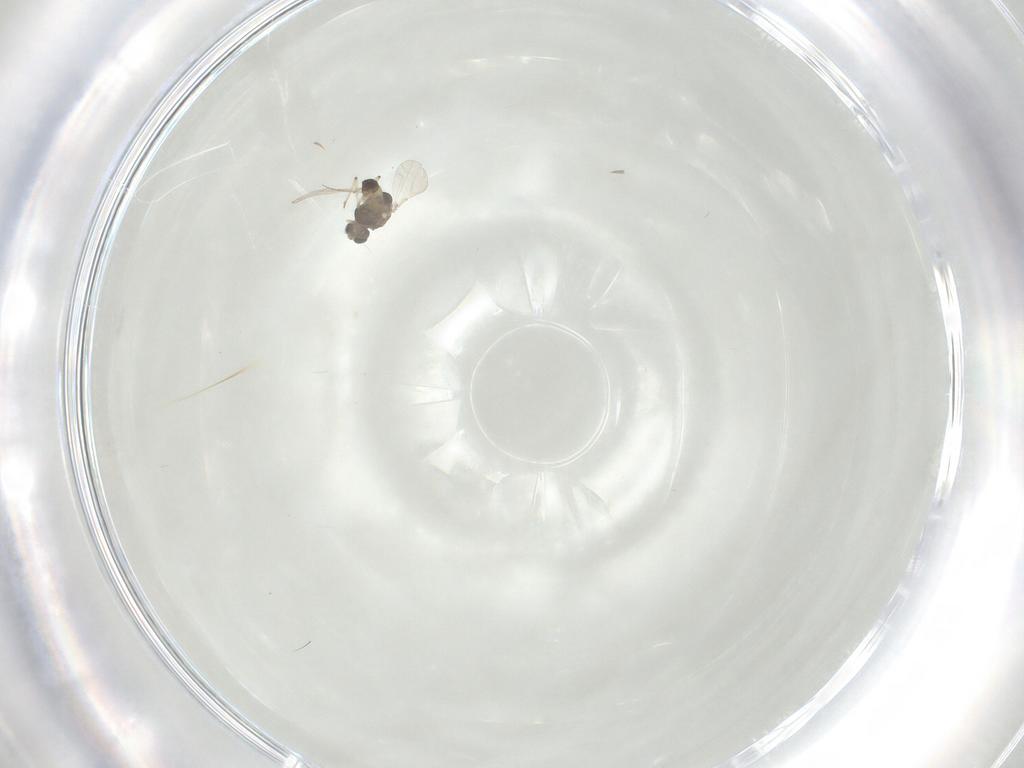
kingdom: Animalia
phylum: Arthropoda
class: Insecta
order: Diptera
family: Chironomidae
